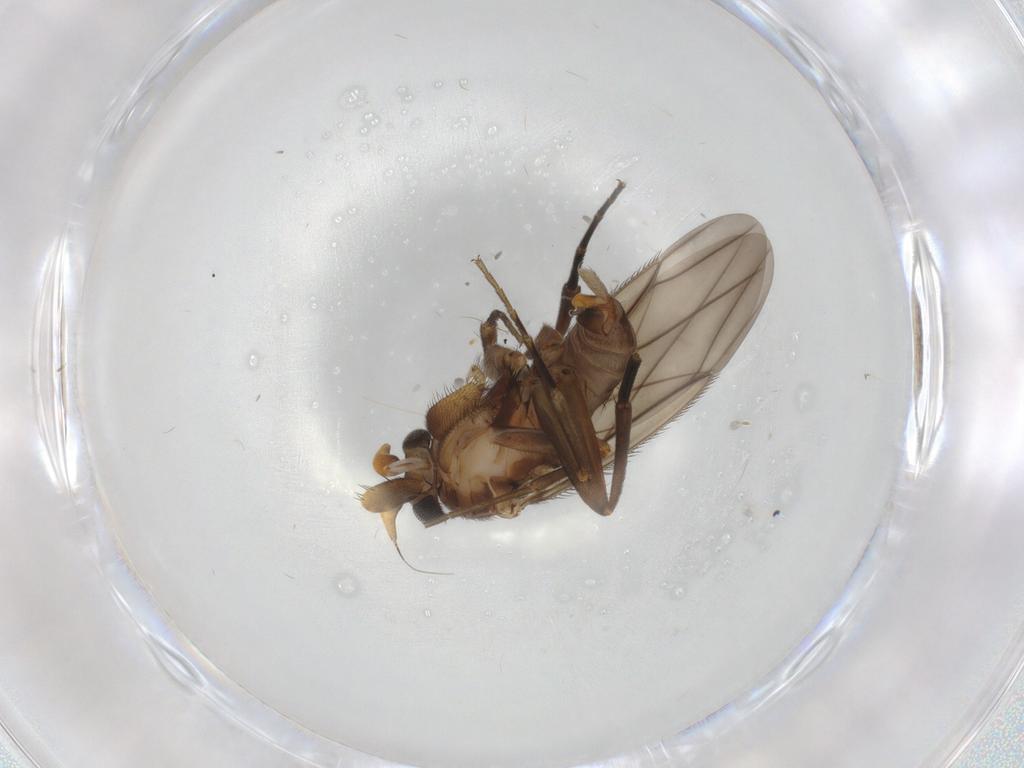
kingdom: Animalia
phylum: Arthropoda
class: Insecta
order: Diptera
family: Phoridae
